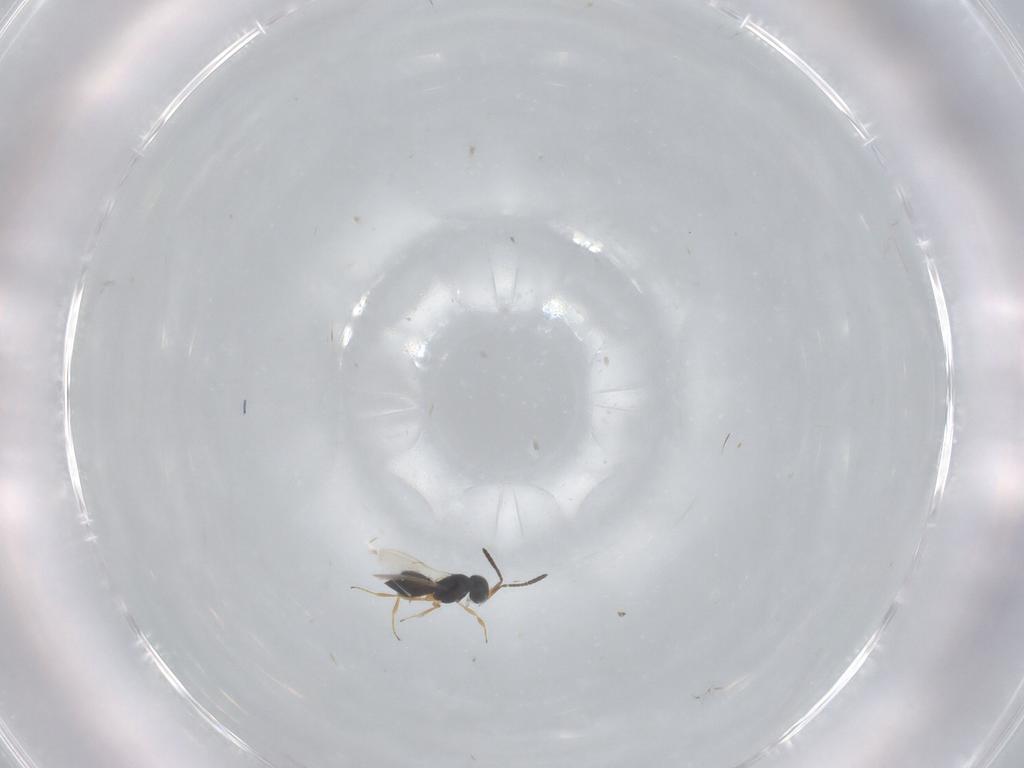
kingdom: Animalia
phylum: Arthropoda
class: Insecta
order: Hymenoptera
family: Scelionidae
